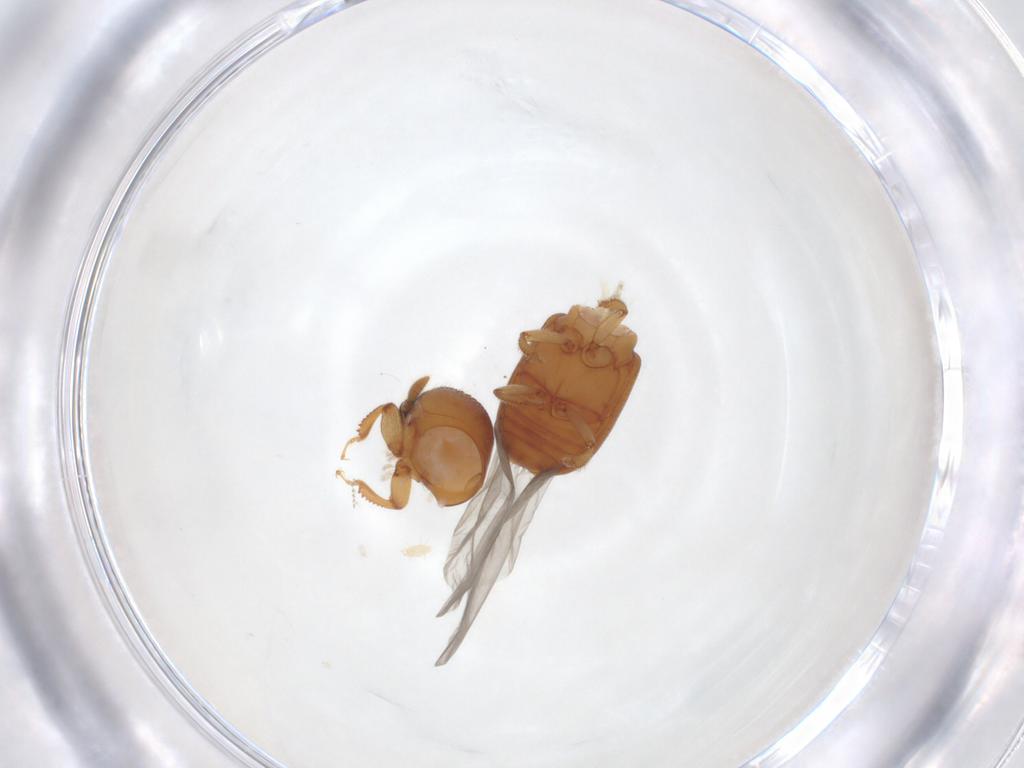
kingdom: Animalia
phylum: Arthropoda
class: Insecta
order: Coleoptera
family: Curculionidae
